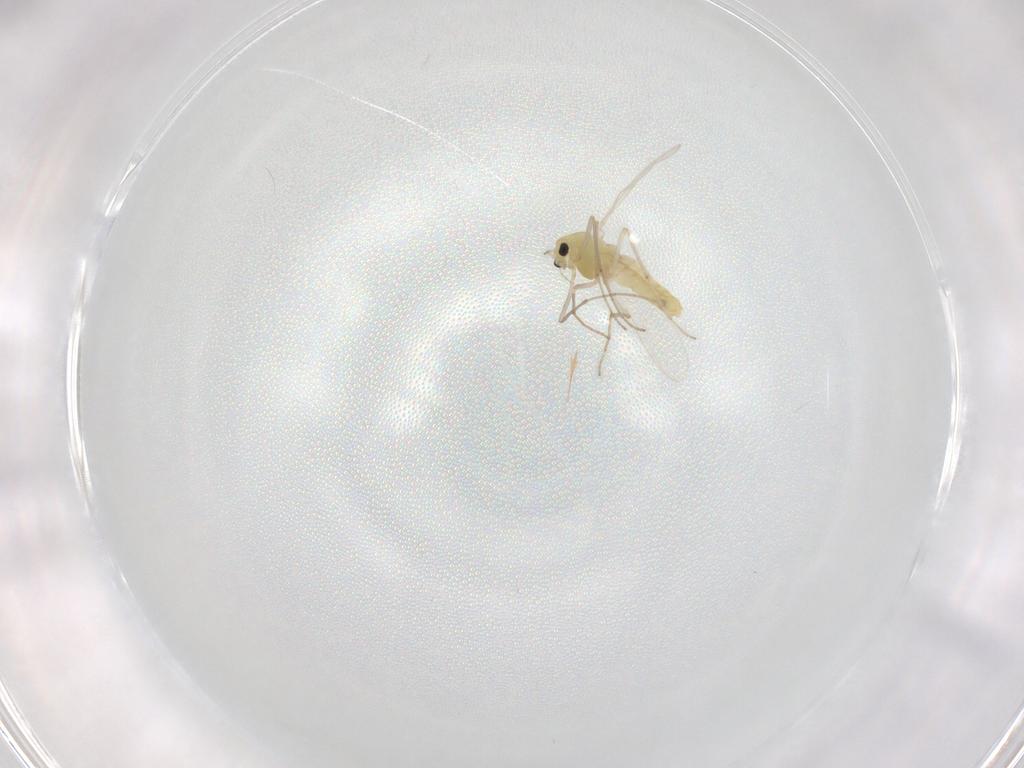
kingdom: Animalia
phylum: Arthropoda
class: Insecta
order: Diptera
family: Chironomidae
